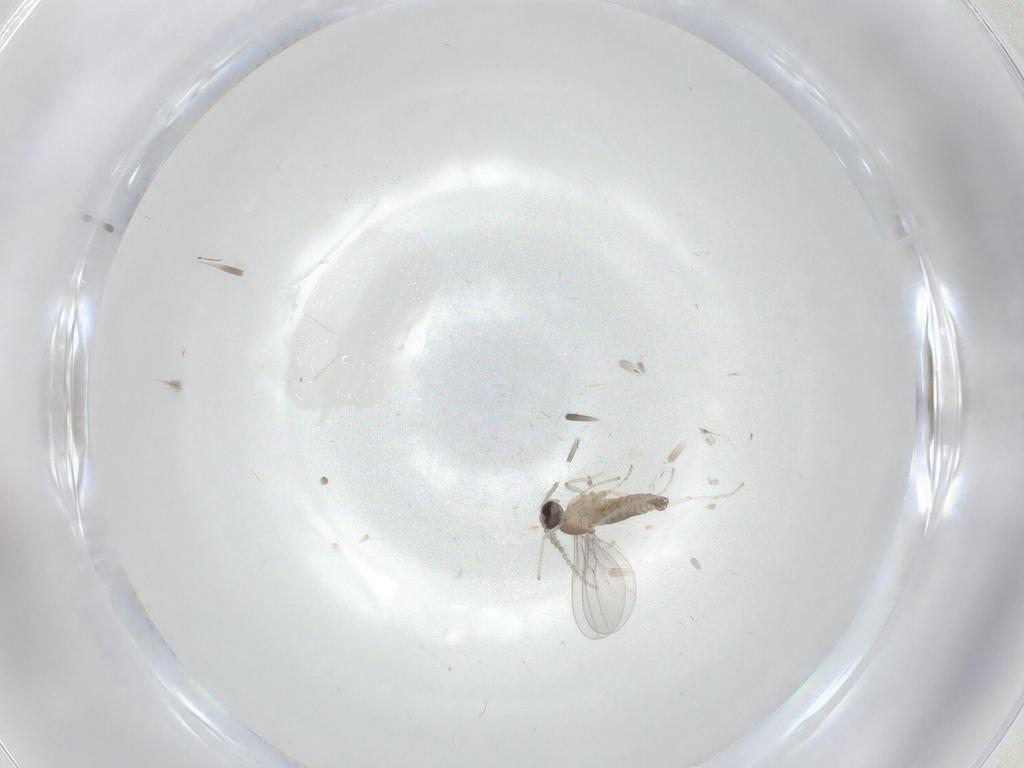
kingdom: Animalia
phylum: Arthropoda
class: Insecta
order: Diptera
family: Cecidomyiidae
